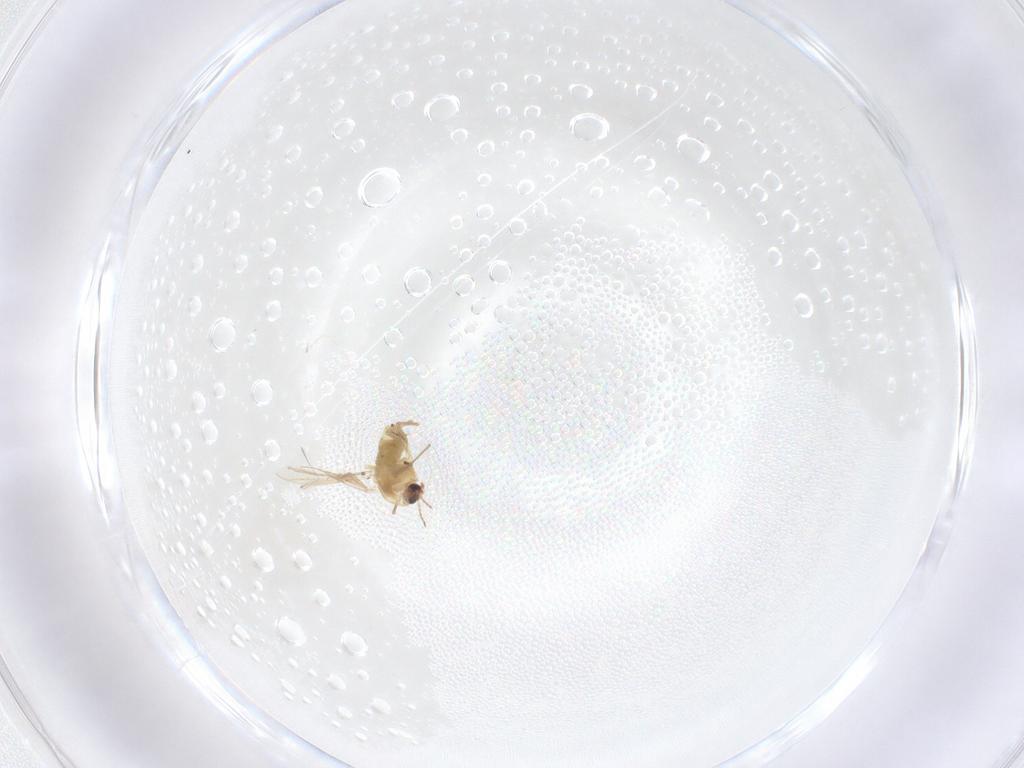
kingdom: Animalia
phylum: Arthropoda
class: Insecta
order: Diptera
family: Chironomidae
